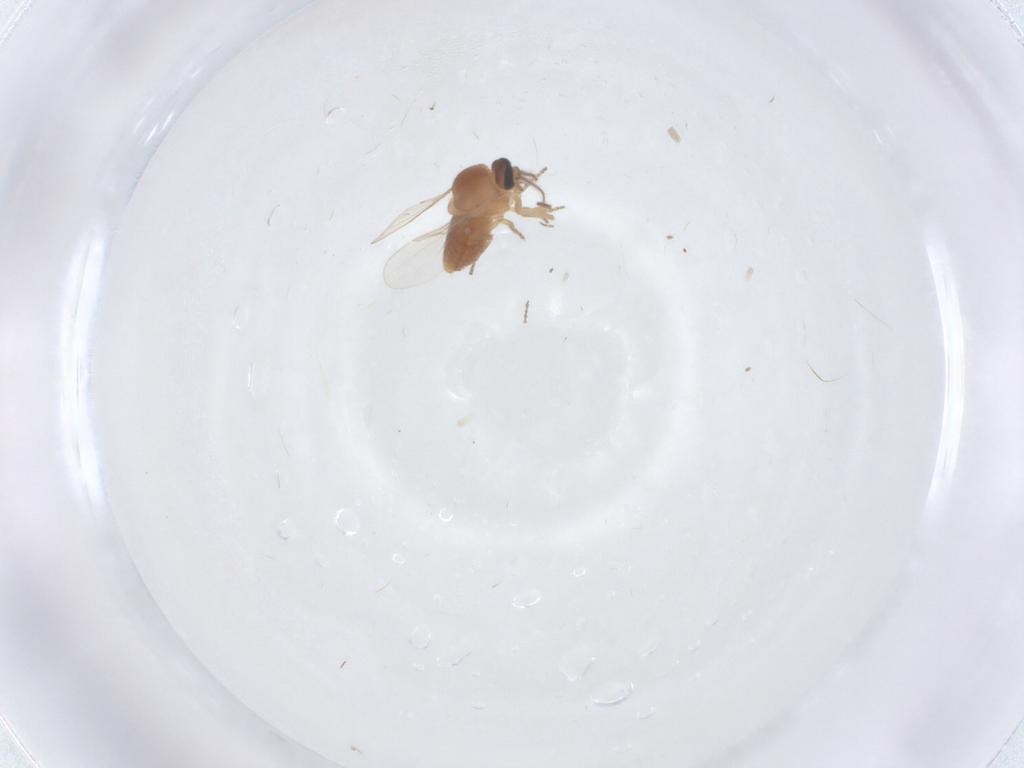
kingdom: Animalia
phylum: Arthropoda
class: Insecta
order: Diptera
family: Ceratopogonidae
